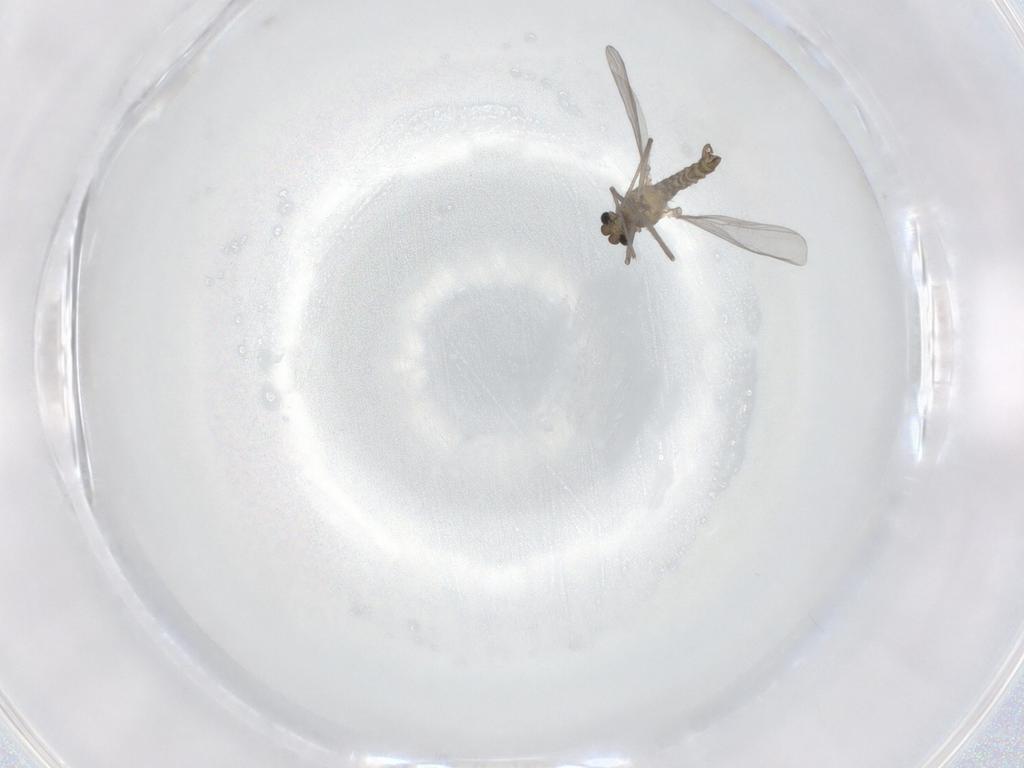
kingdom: Animalia
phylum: Arthropoda
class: Insecta
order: Diptera
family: Chironomidae
